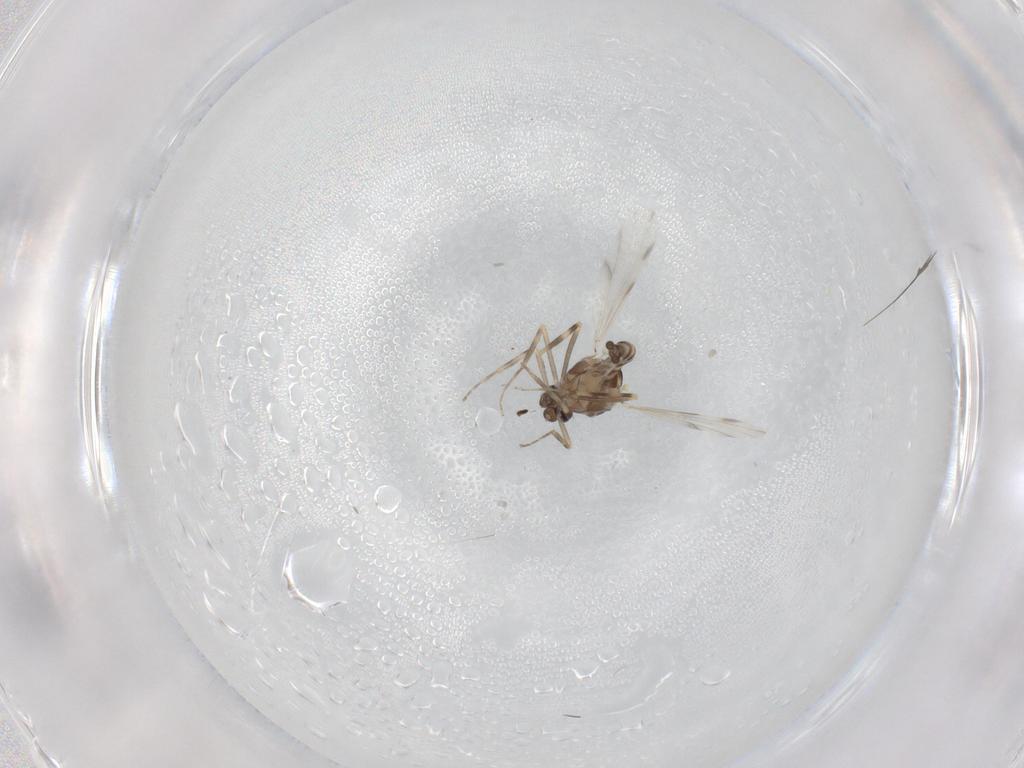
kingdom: Animalia
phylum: Arthropoda
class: Insecta
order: Diptera
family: Ceratopogonidae
